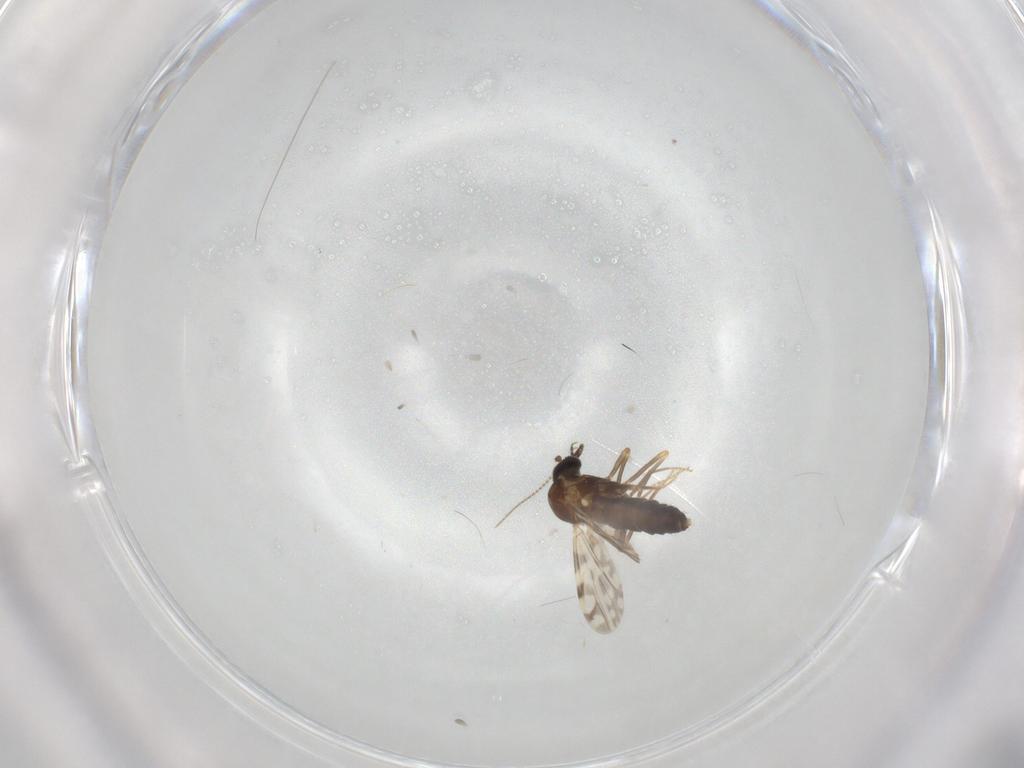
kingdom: Animalia
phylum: Arthropoda
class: Insecta
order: Diptera
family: Ceratopogonidae
